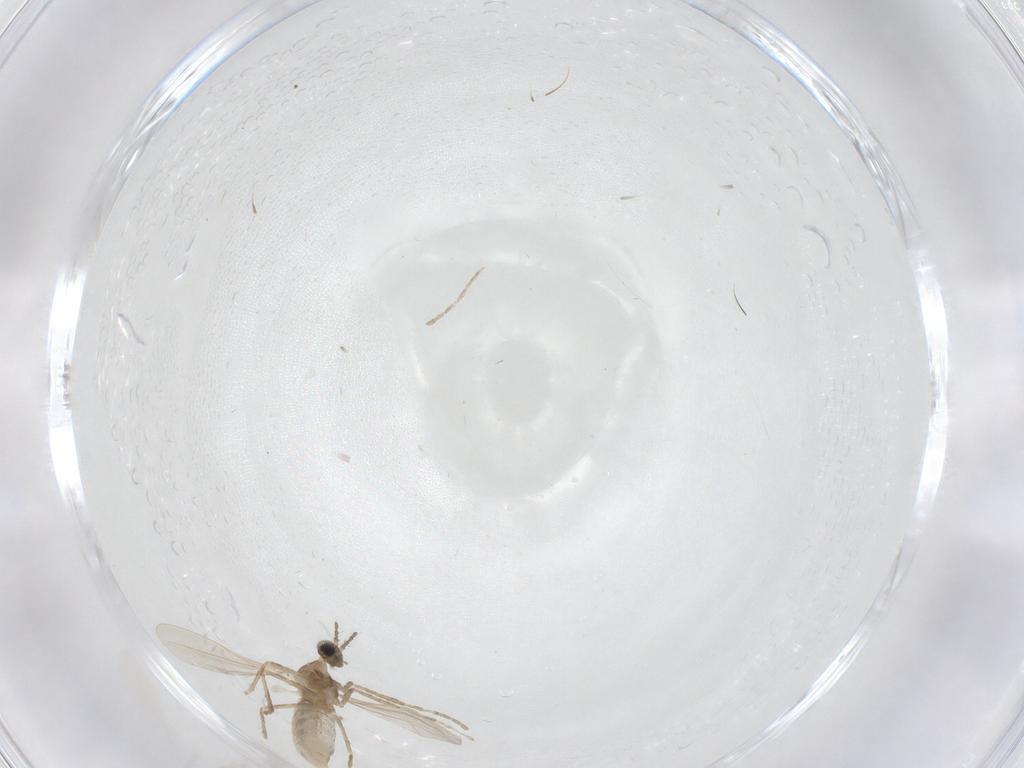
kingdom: Animalia
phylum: Arthropoda
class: Insecta
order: Diptera
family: Cecidomyiidae
